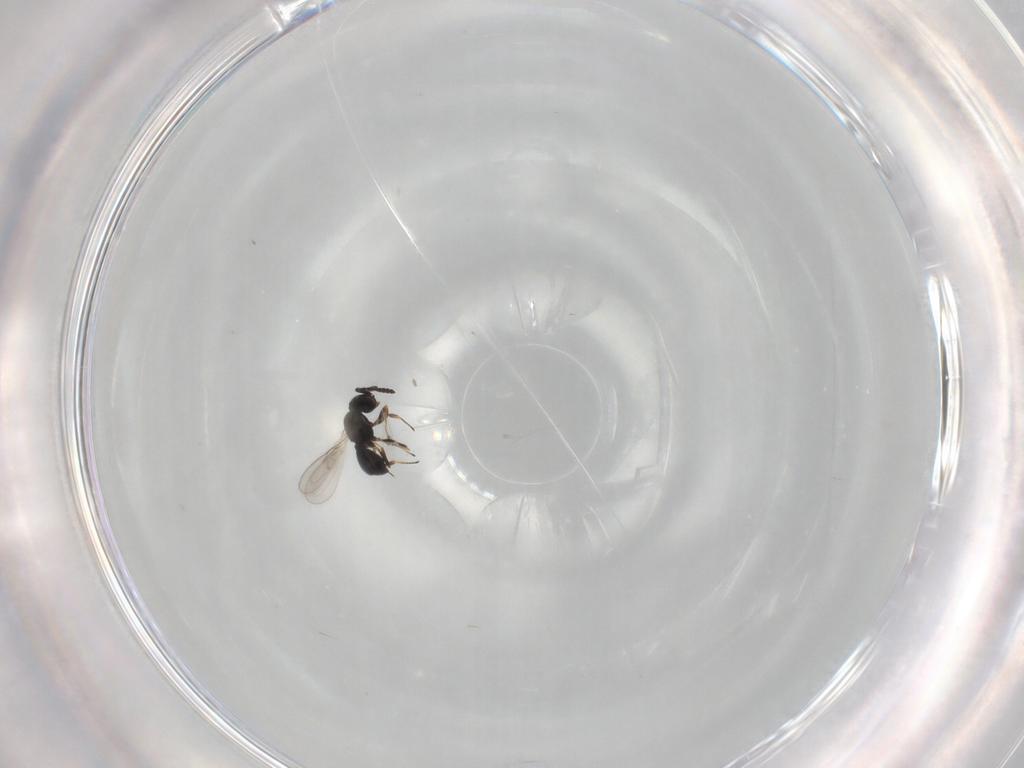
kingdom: Animalia
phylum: Arthropoda
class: Insecta
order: Hymenoptera
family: Scelionidae
